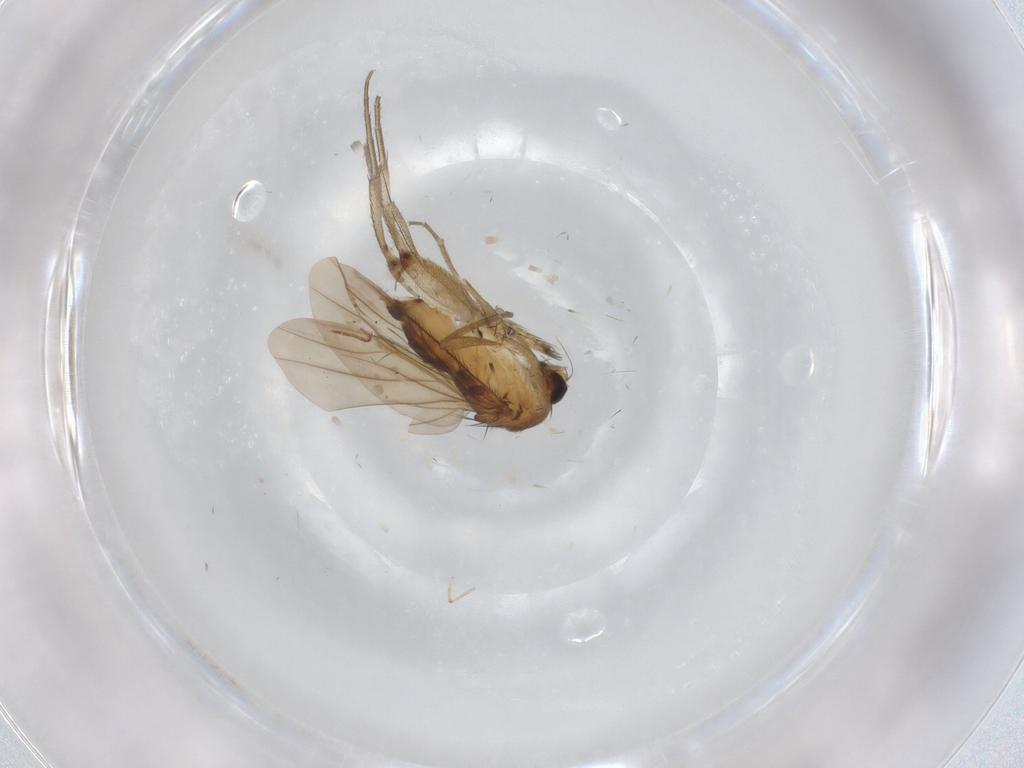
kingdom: Animalia
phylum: Arthropoda
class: Insecta
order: Diptera
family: Phoridae
